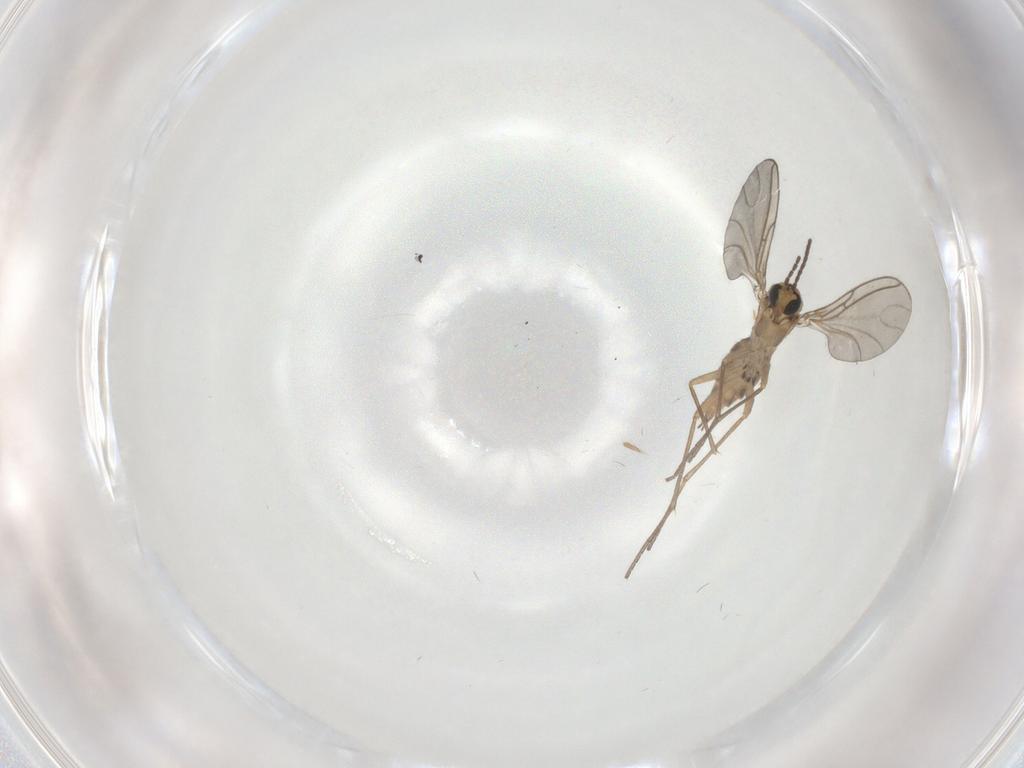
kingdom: Animalia
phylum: Arthropoda
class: Insecta
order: Diptera
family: Sciaridae
